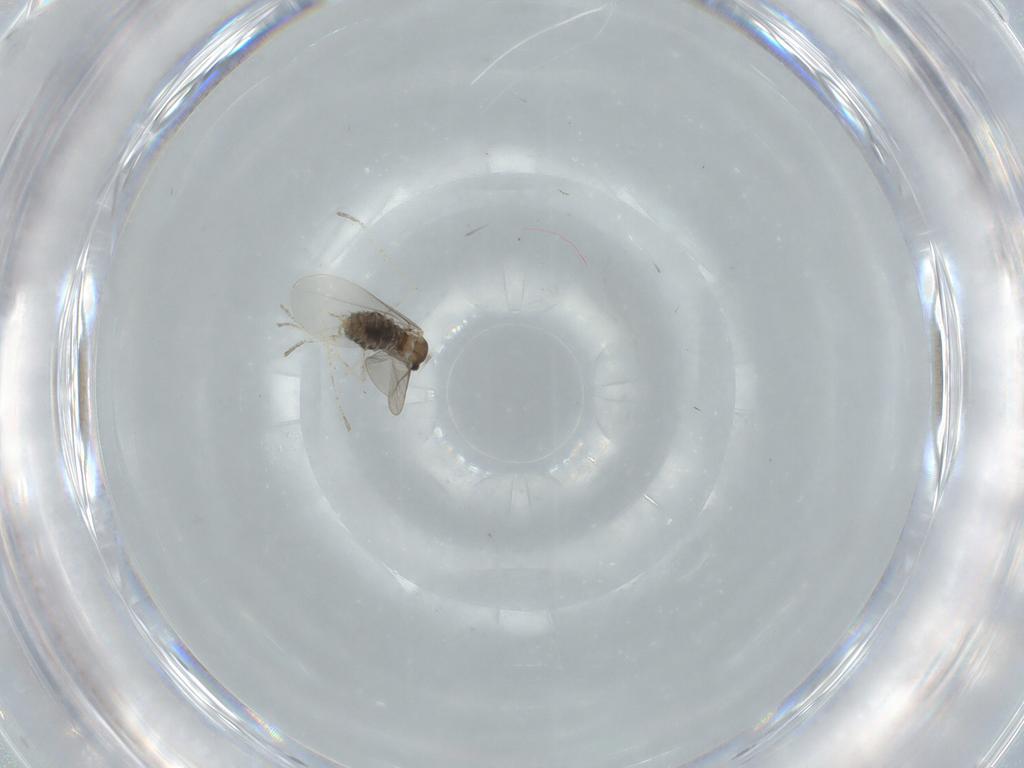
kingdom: Animalia
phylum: Arthropoda
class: Insecta
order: Diptera
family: Cecidomyiidae
